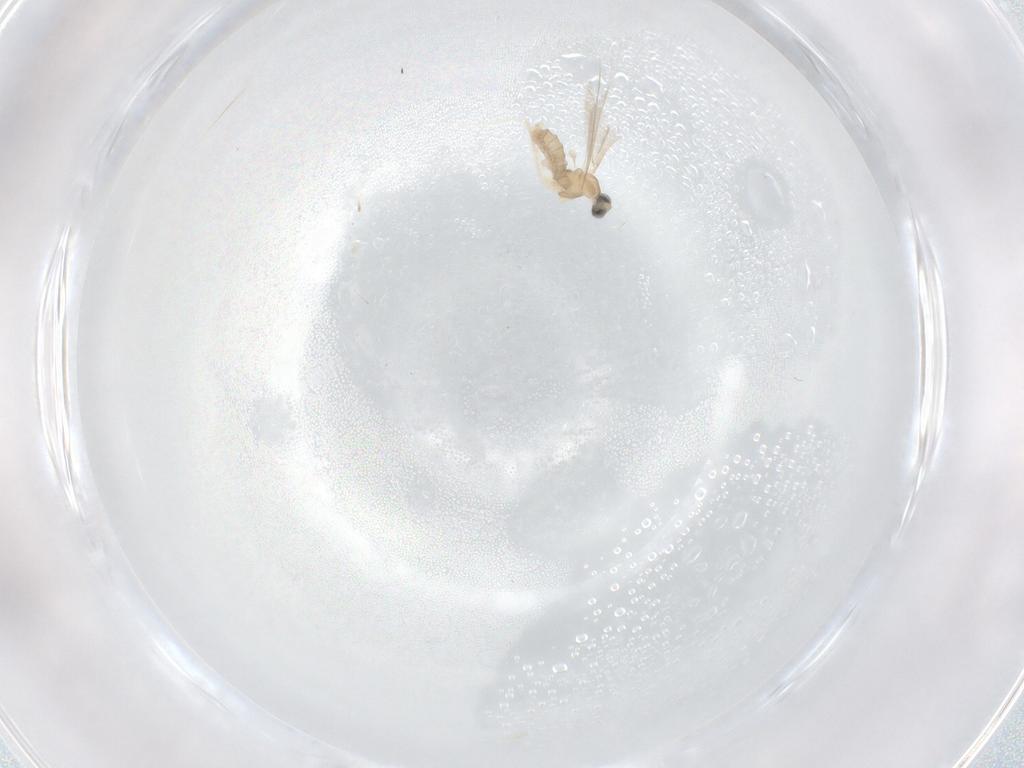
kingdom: Animalia
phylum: Arthropoda
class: Insecta
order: Diptera
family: Cecidomyiidae
